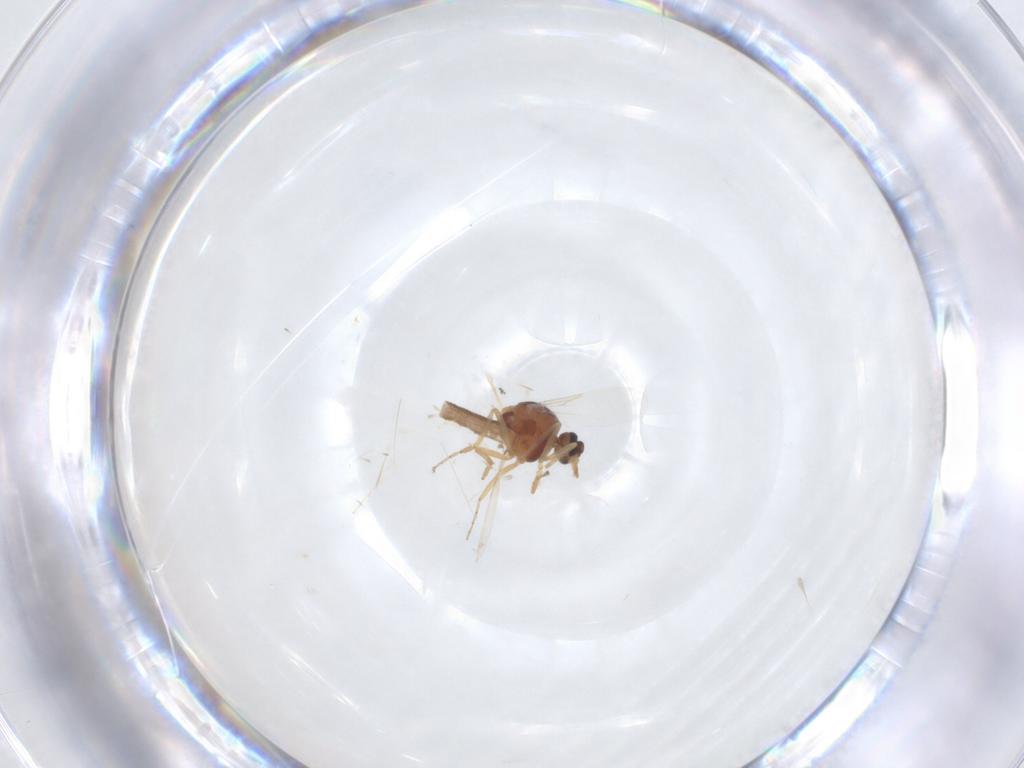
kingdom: Animalia
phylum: Arthropoda
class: Insecta
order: Diptera
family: Cecidomyiidae
